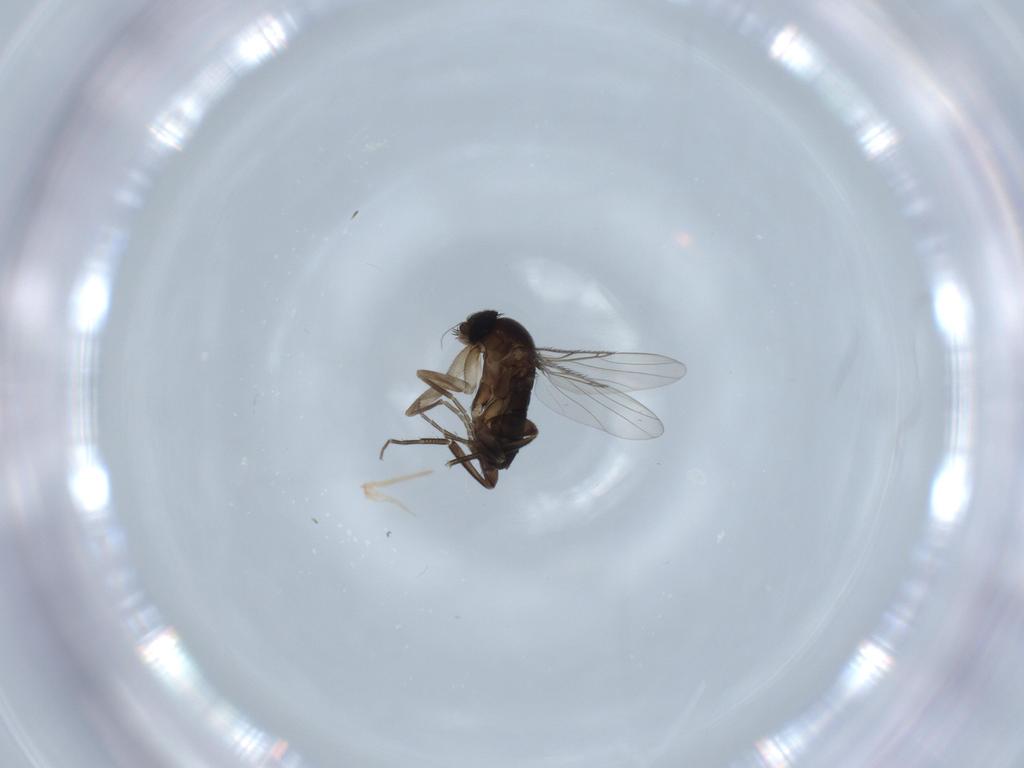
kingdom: Animalia
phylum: Arthropoda
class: Insecta
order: Diptera
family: Phoridae
